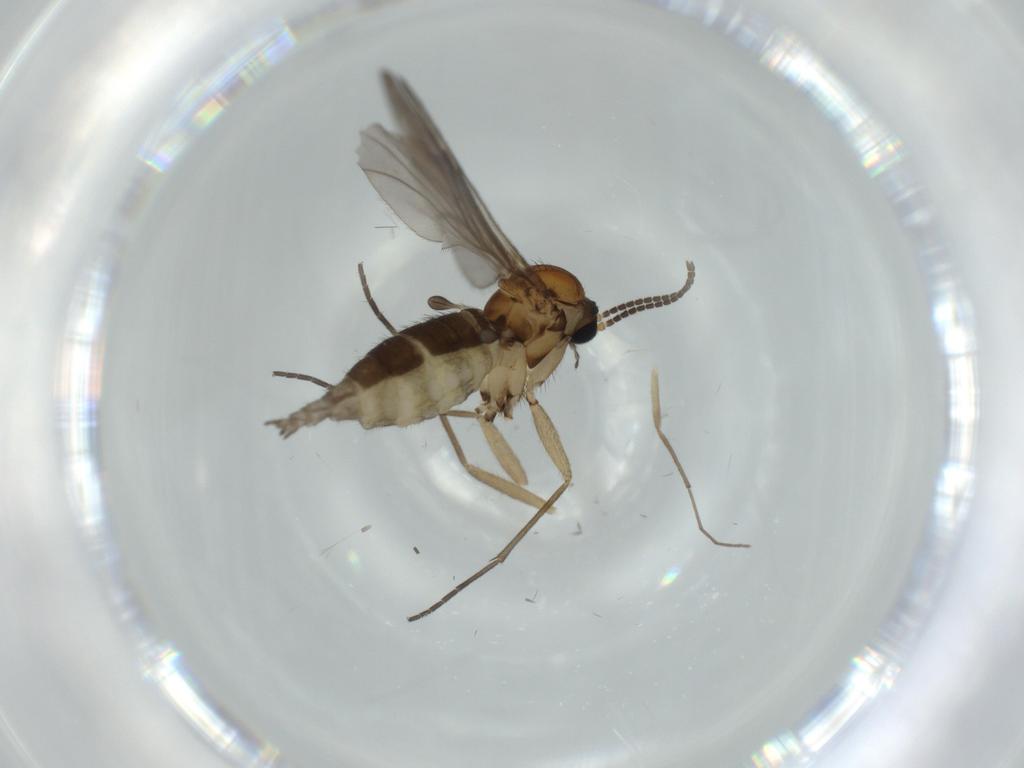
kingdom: Animalia
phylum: Arthropoda
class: Insecta
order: Diptera
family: Sciaridae
